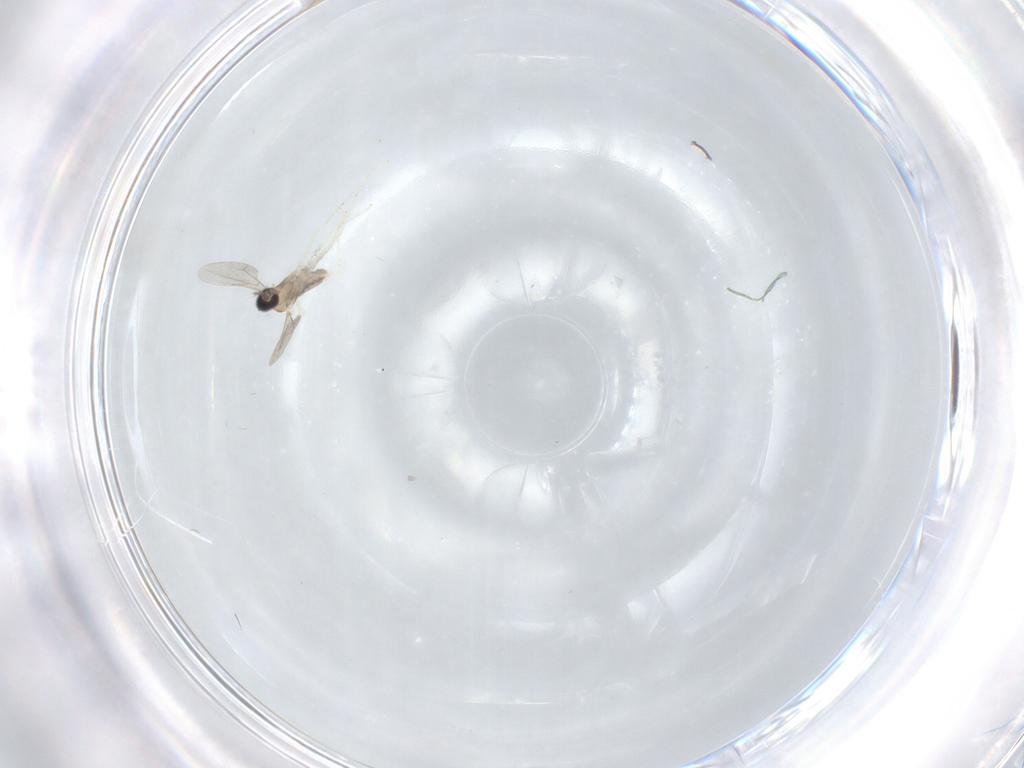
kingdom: Animalia
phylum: Arthropoda
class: Insecta
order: Diptera
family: Cecidomyiidae
